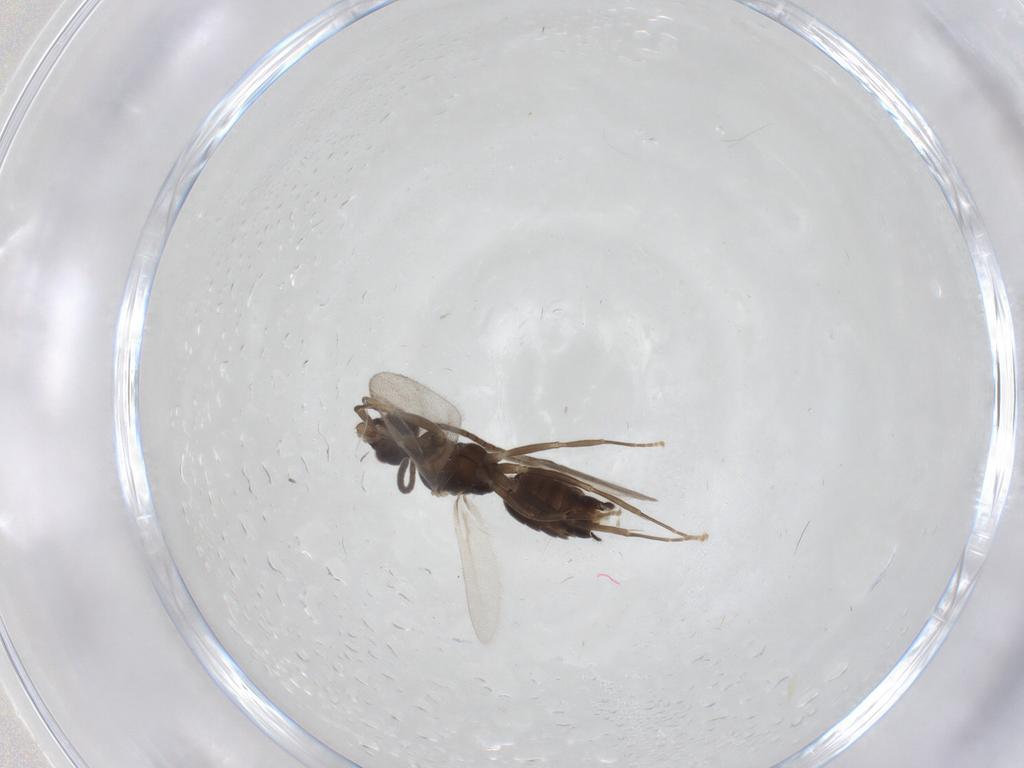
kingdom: Animalia
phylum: Arthropoda
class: Insecta
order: Hymenoptera
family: Formicidae
